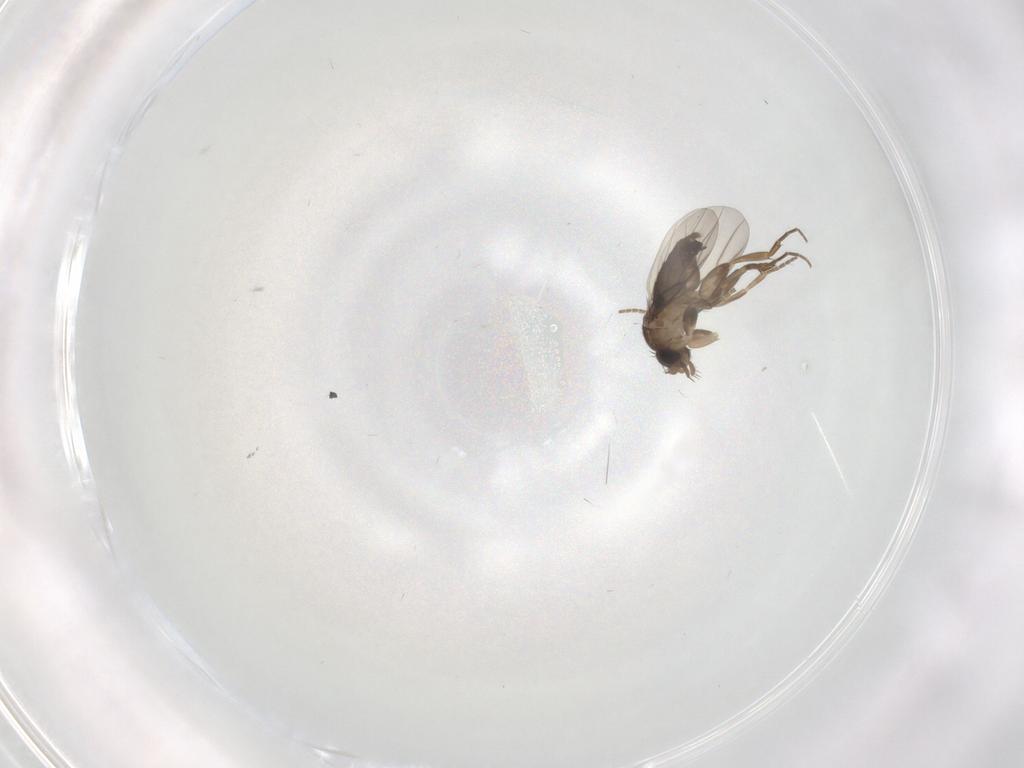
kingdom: Animalia
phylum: Arthropoda
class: Insecta
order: Diptera
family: Phoridae
